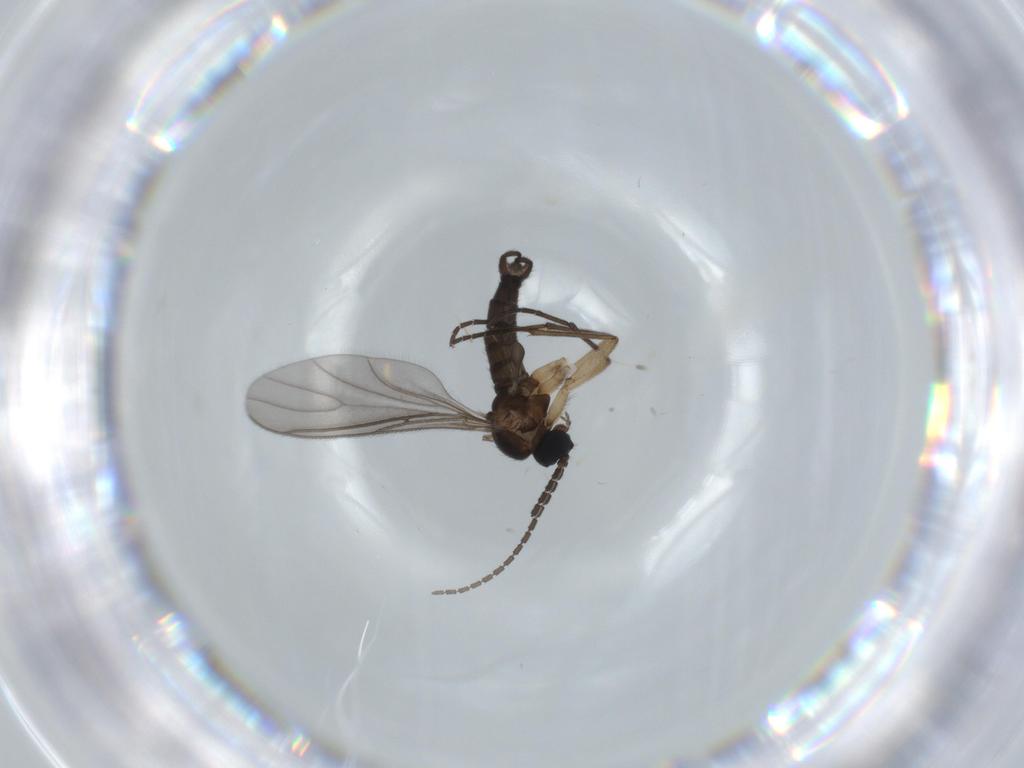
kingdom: Animalia
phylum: Arthropoda
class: Insecta
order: Diptera
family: Sciaridae
